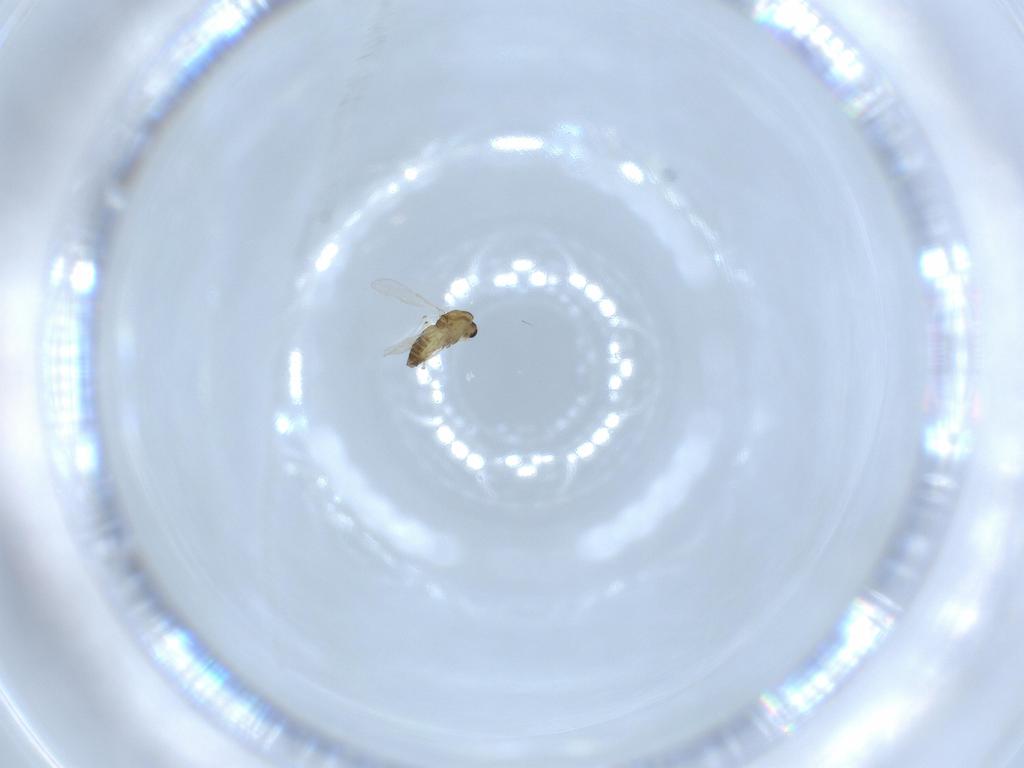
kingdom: Animalia
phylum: Arthropoda
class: Insecta
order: Diptera
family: Chironomidae
